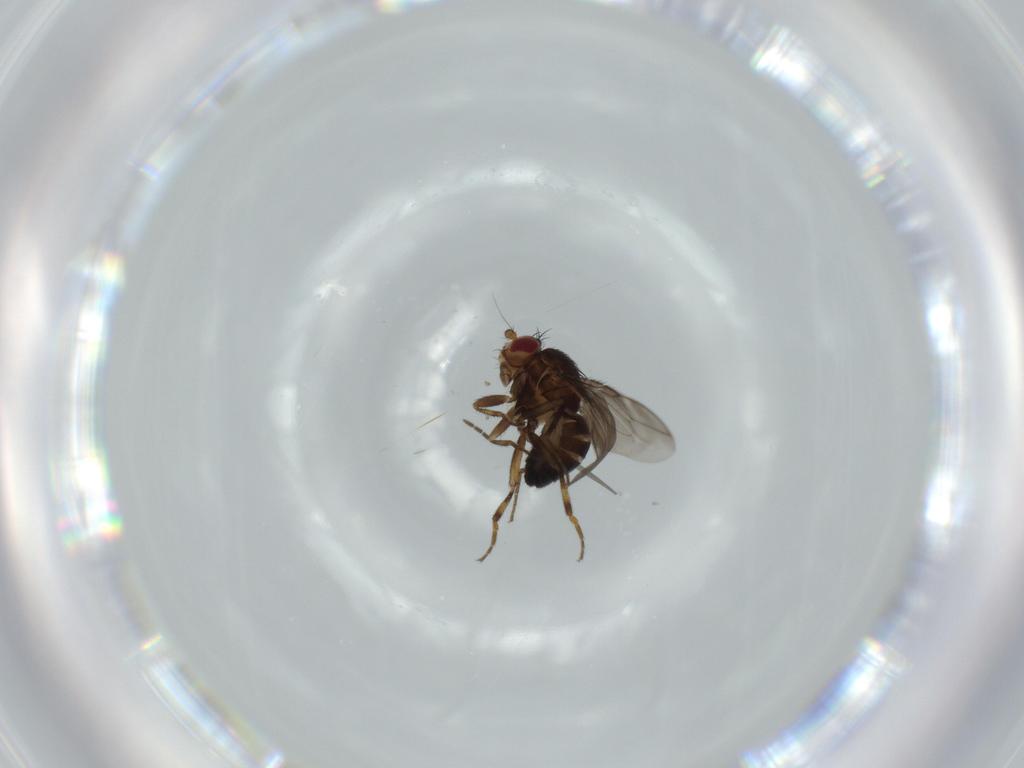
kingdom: Animalia
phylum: Arthropoda
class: Insecta
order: Diptera
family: Sphaeroceridae
